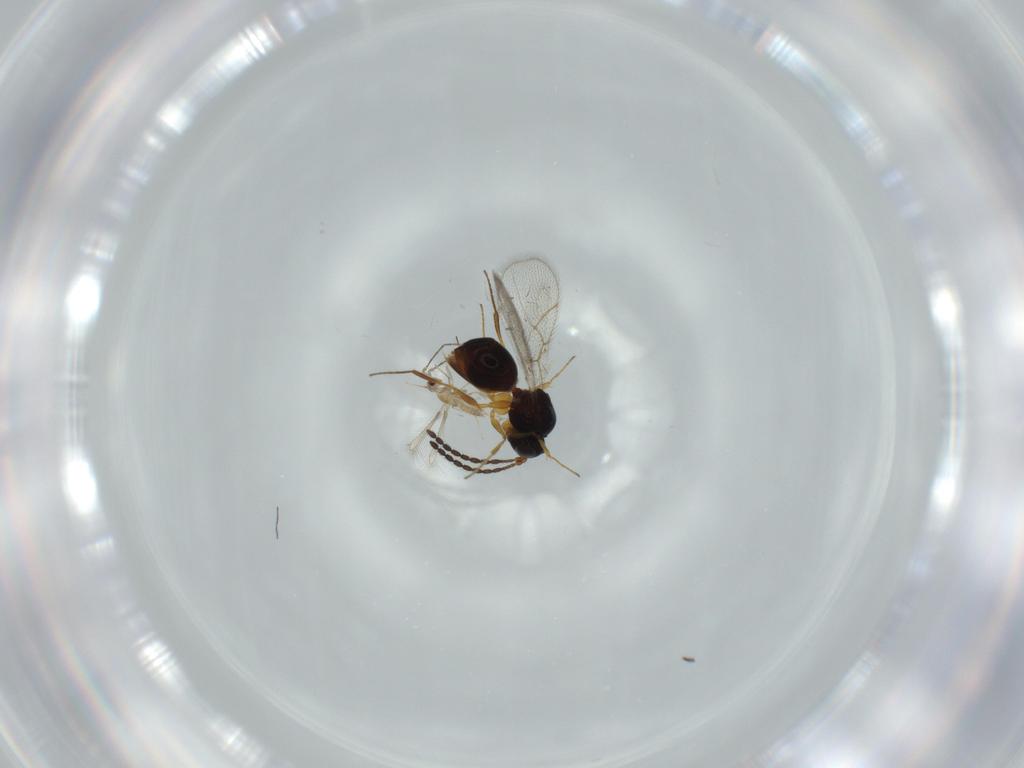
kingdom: Animalia
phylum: Arthropoda
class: Insecta
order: Hymenoptera
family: Figitidae
